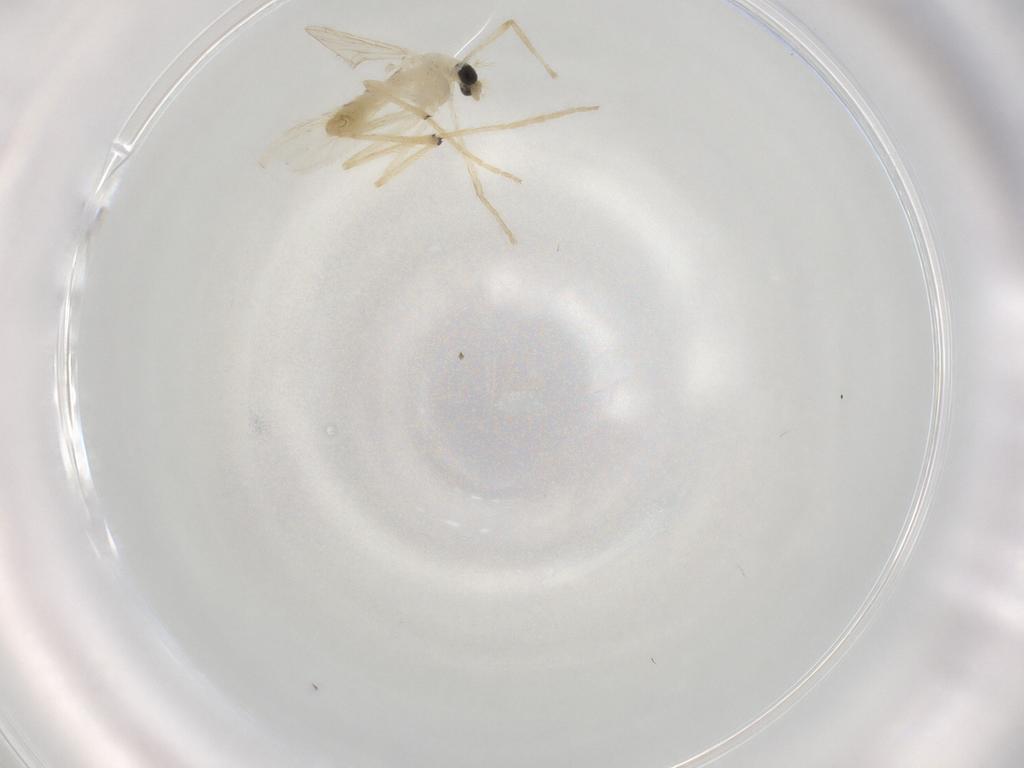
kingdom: Animalia
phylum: Arthropoda
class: Insecta
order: Diptera
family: Chironomidae
